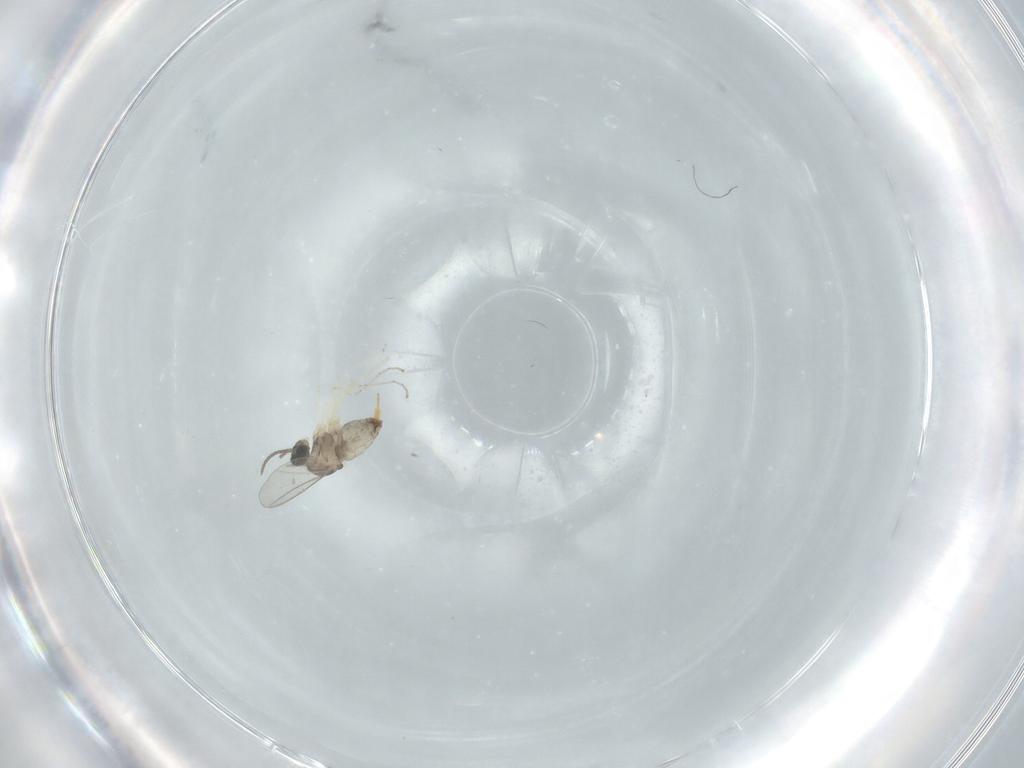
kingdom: Animalia
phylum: Arthropoda
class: Insecta
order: Diptera
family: Cecidomyiidae
